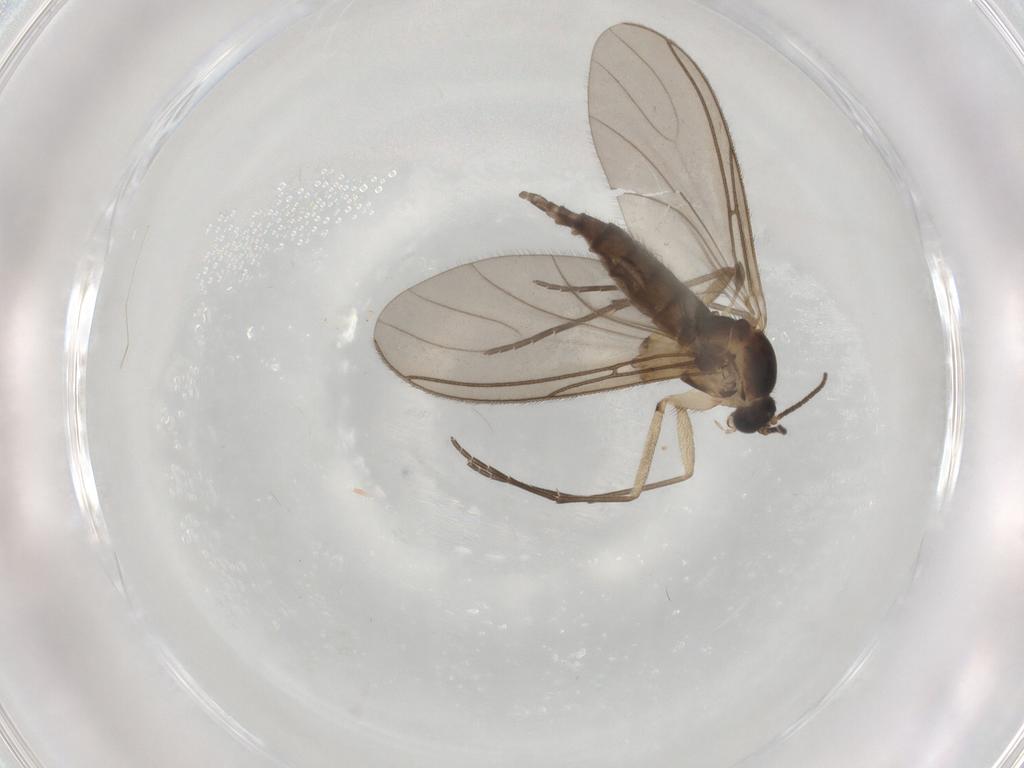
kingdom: Animalia
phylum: Arthropoda
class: Insecta
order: Diptera
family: Sciaridae
